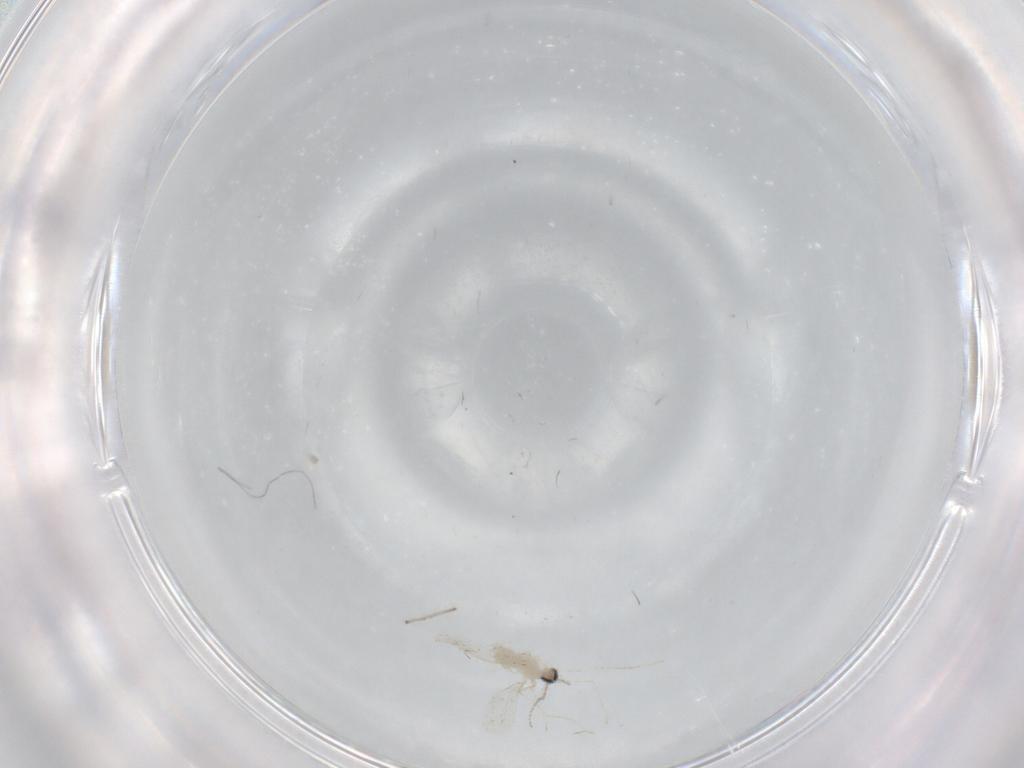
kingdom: Animalia
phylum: Arthropoda
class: Insecta
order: Diptera
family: Cecidomyiidae
